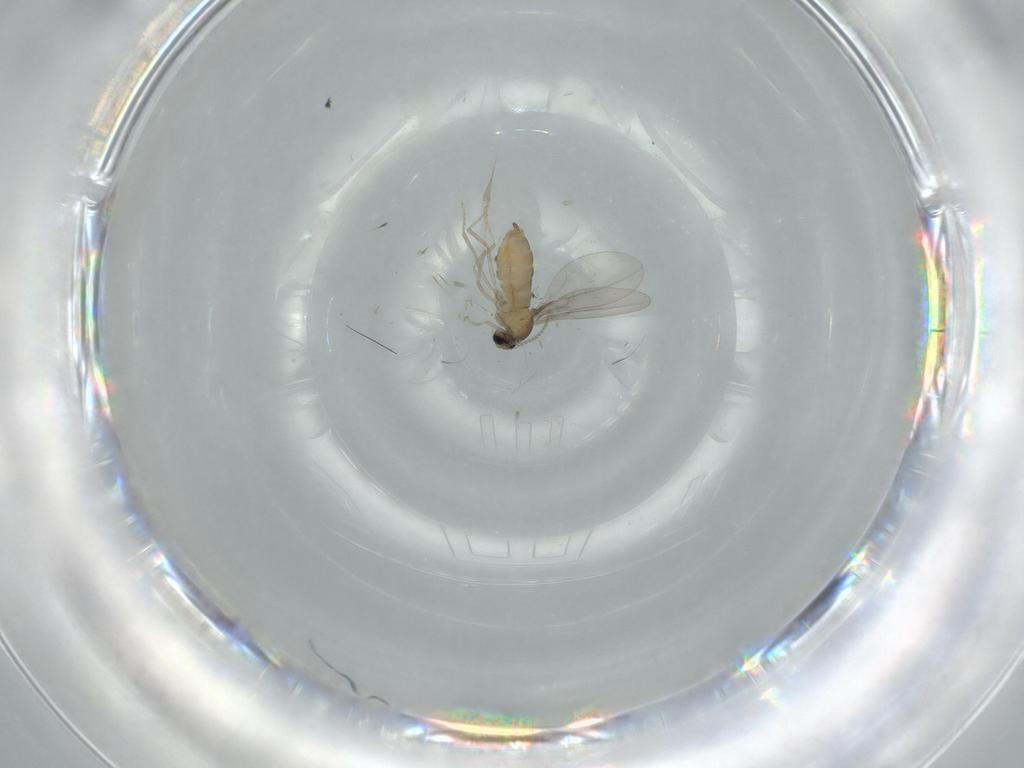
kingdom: Animalia
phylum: Arthropoda
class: Insecta
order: Diptera
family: Cecidomyiidae
